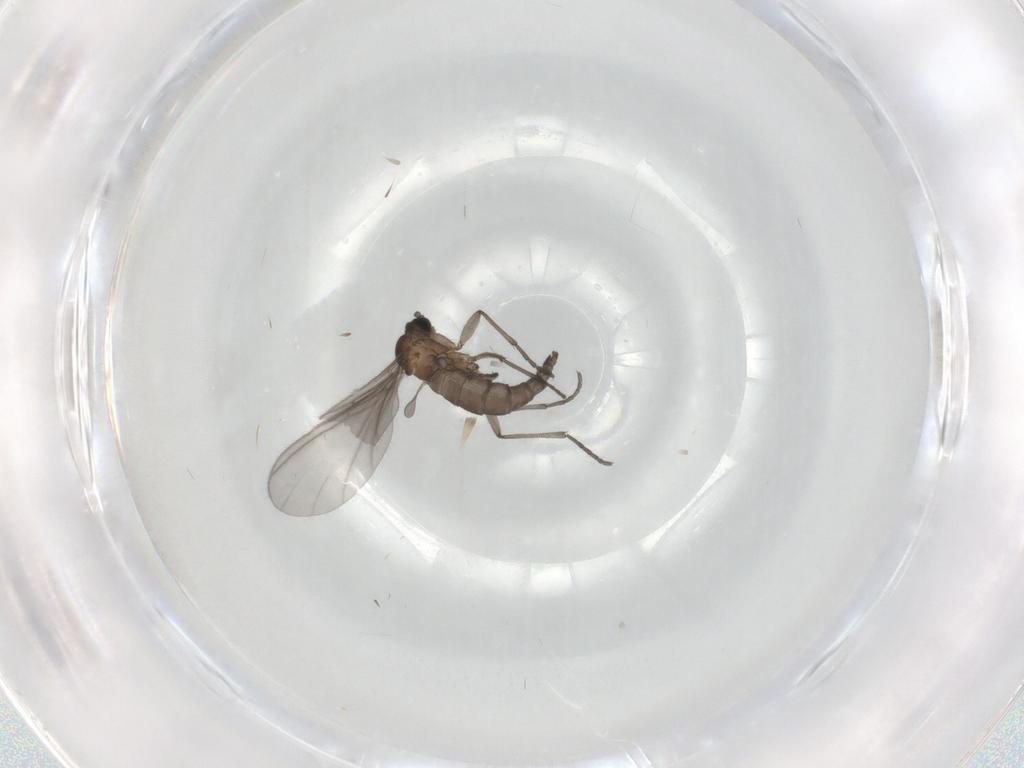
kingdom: Animalia
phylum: Arthropoda
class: Insecta
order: Diptera
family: Sciaridae
